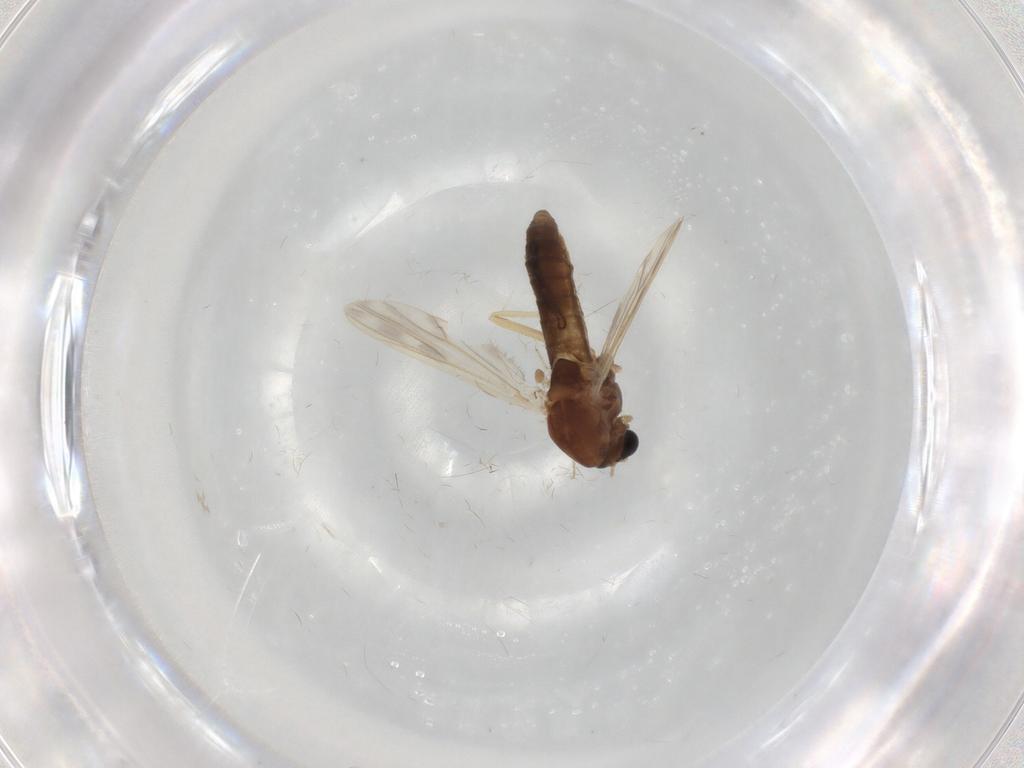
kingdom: Animalia
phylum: Arthropoda
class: Insecta
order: Diptera
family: Chironomidae
